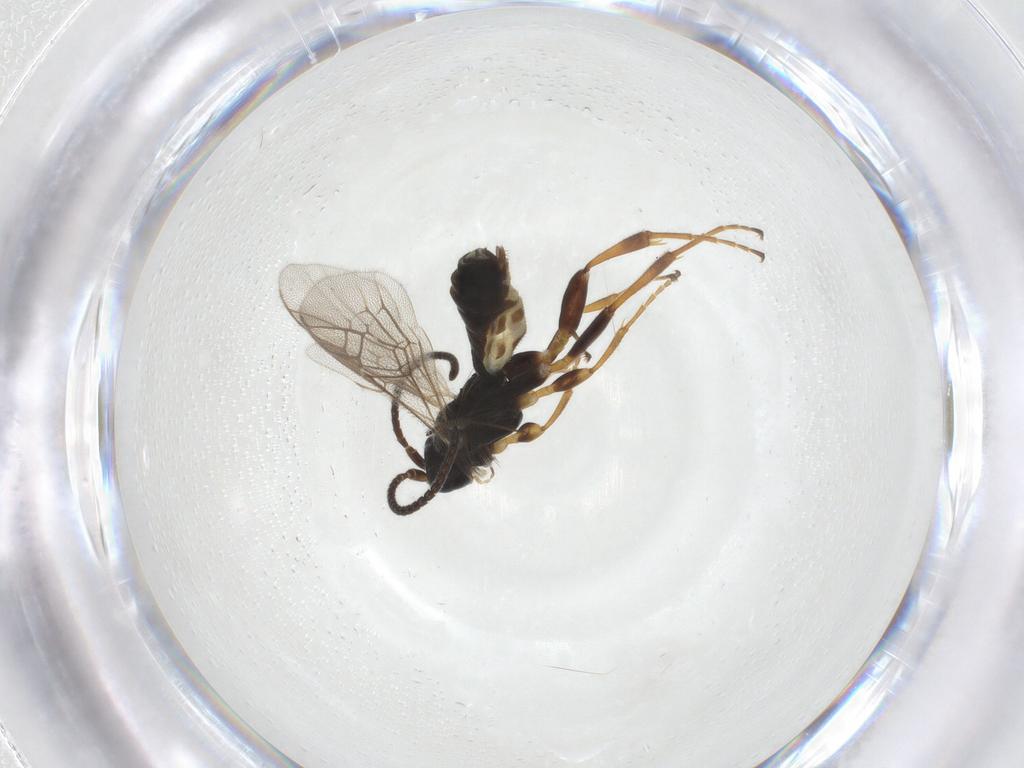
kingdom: Animalia
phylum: Arthropoda
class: Insecta
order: Hymenoptera
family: Ichneumonidae
